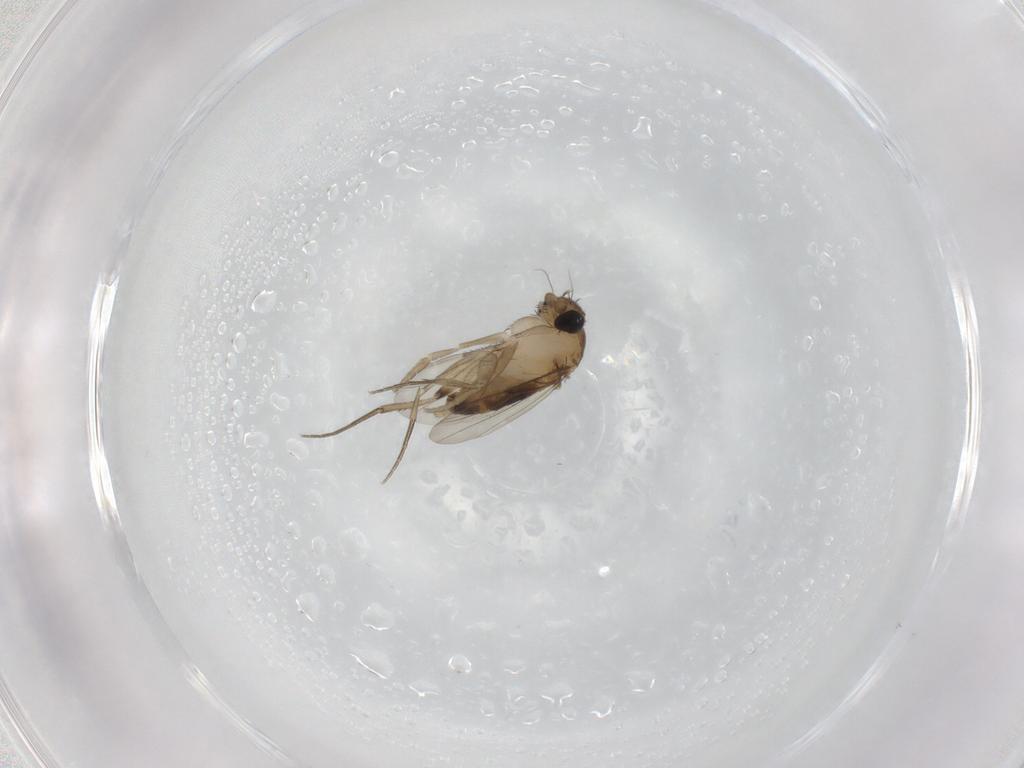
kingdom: Animalia
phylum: Arthropoda
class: Insecta
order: Diptera
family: Phoridae
